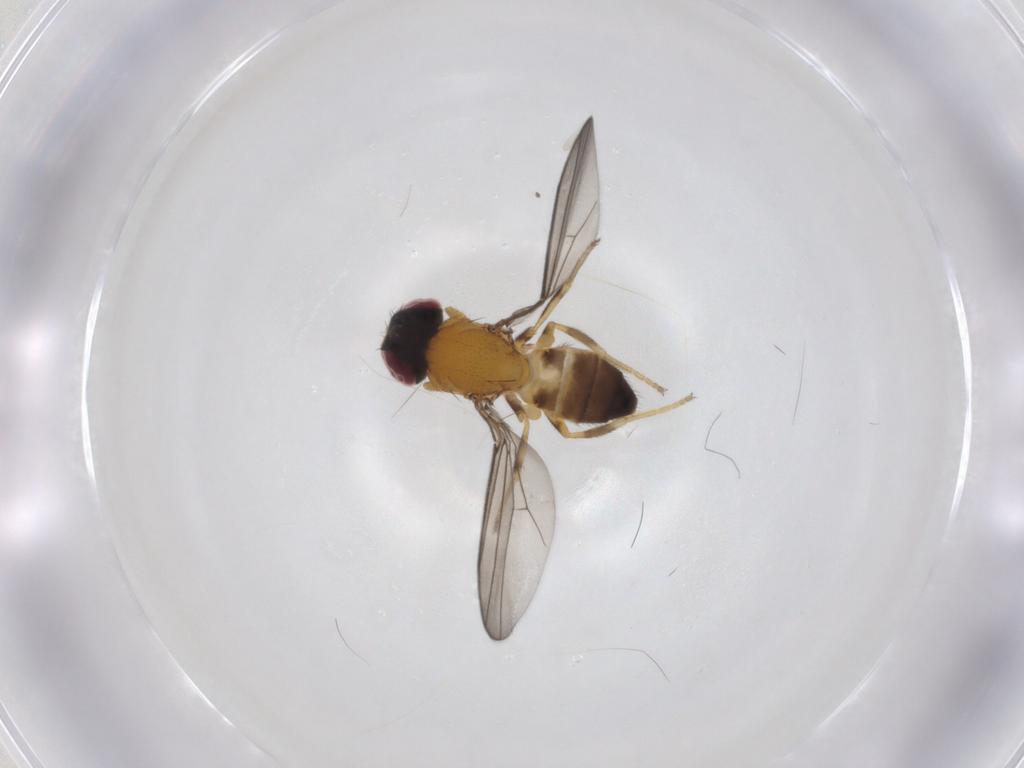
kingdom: Animalia
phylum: Arthropoda
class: Insecta
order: Diptera
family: Chloropidae
